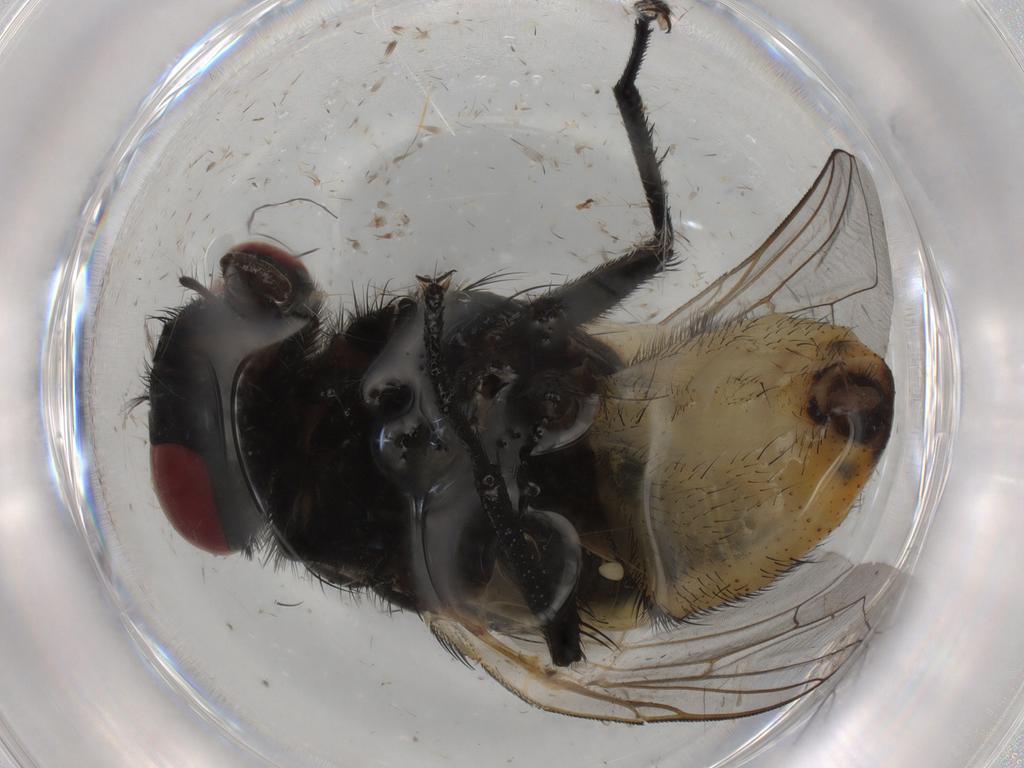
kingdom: Animalia
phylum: Arthropoda
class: Insecta
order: Diptera
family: Muscidae
